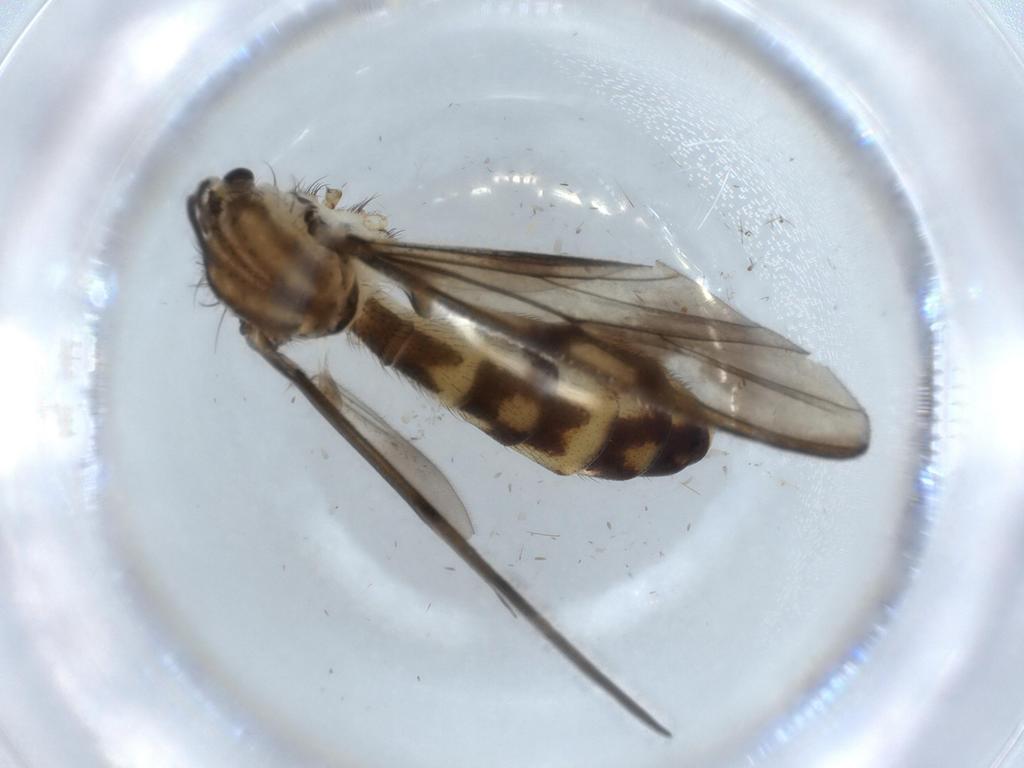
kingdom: Animalia
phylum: Arthropoda
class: Insecta
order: Diptera
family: Mycetophilidae
